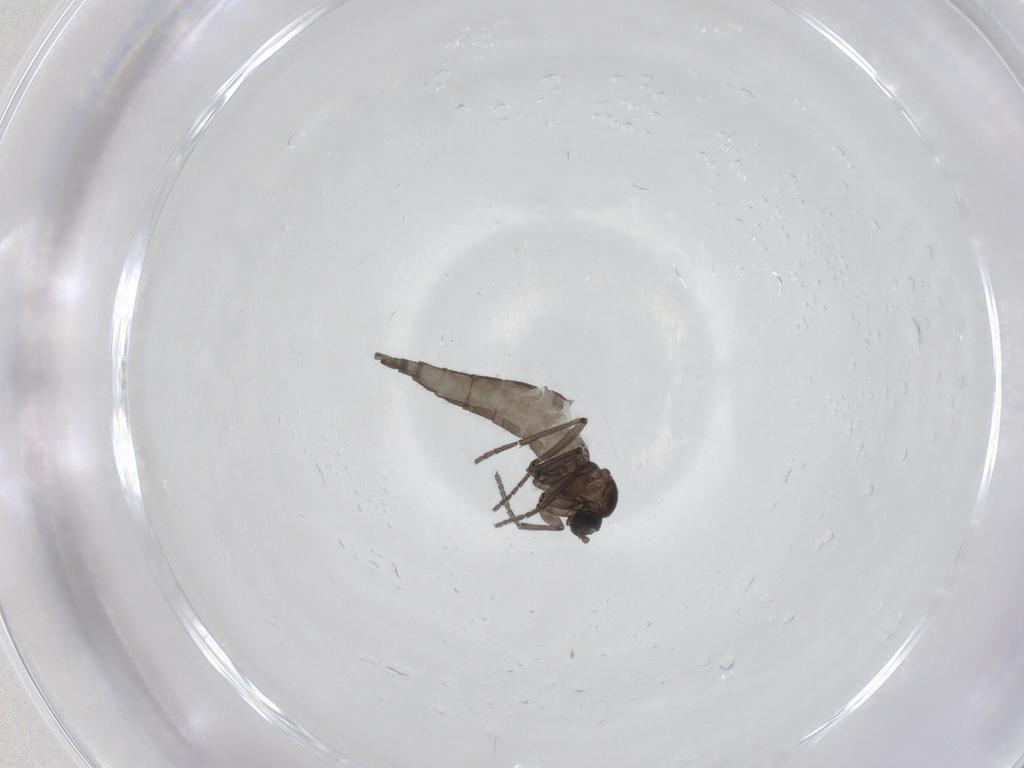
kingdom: Animalia
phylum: Arthropoda
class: Insecta
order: Diptera
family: Sciaridae
